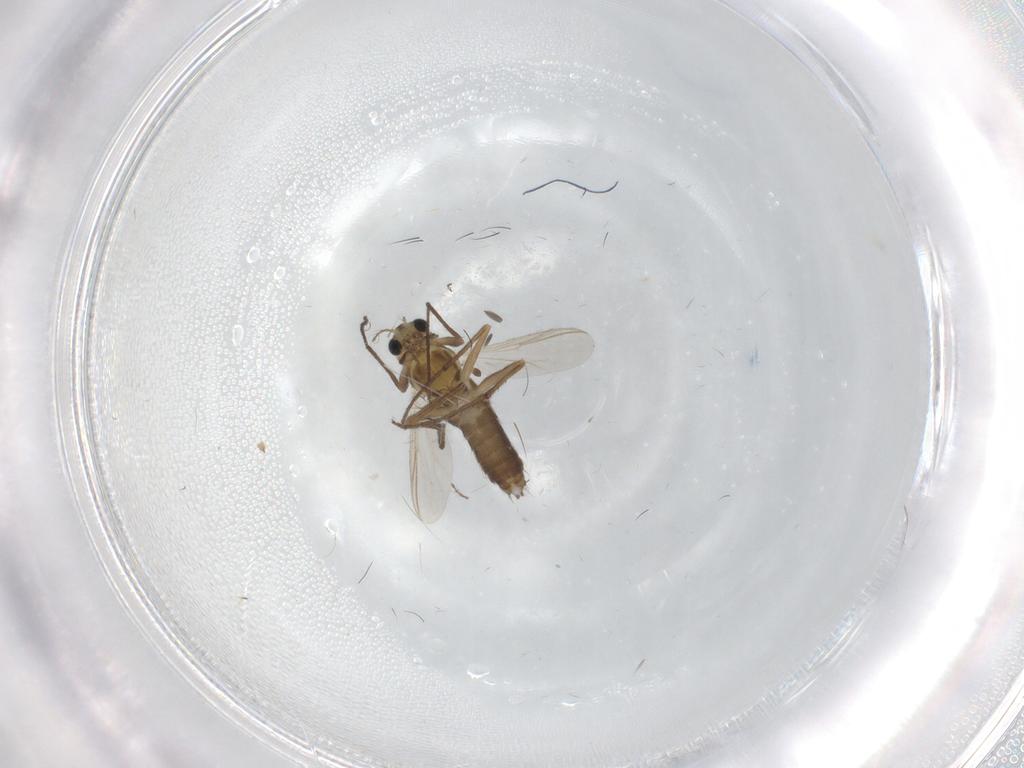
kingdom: Animalia
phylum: Arthropoda
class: Insecta
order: Diptera
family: Chironomidae
